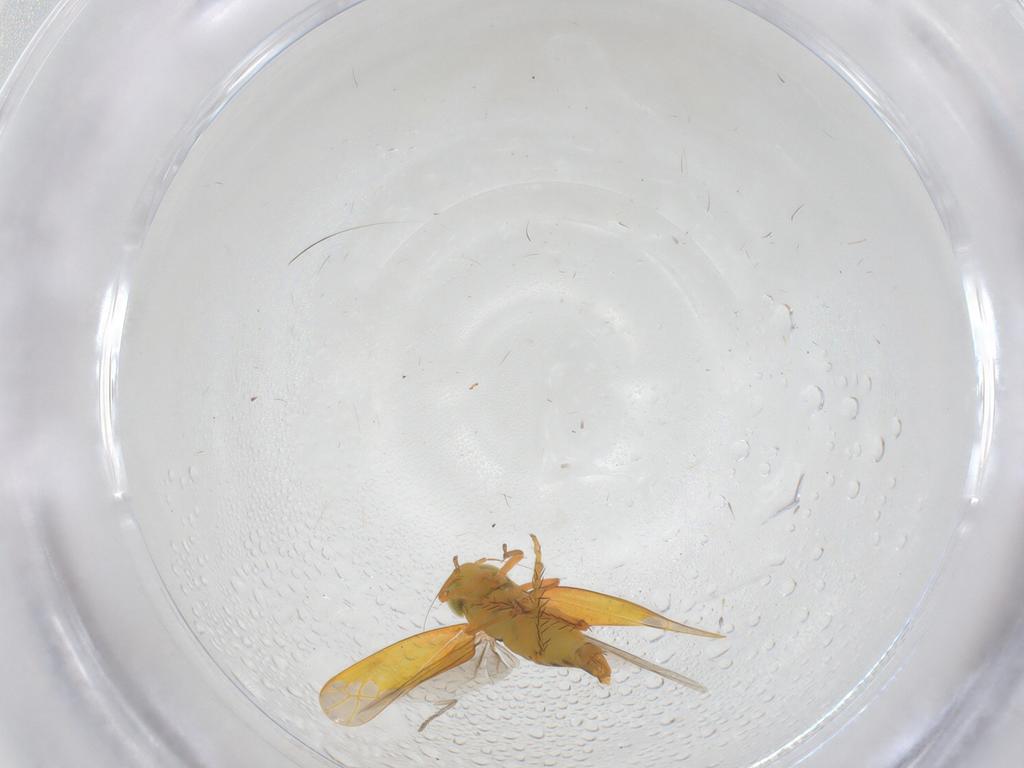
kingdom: Animalia
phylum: Arthropoda
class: Insecta
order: Hemiptera
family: Cicadellidae
